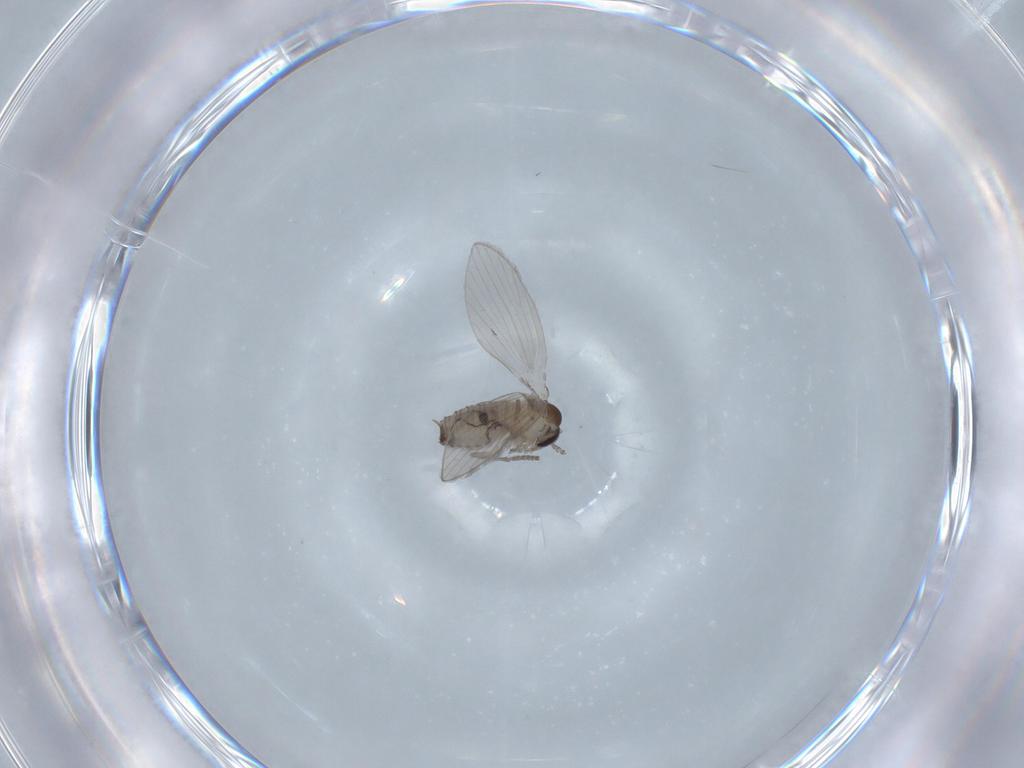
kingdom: Animalia
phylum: Arthropoda
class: Insecta
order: Diptera
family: Psychodidae
